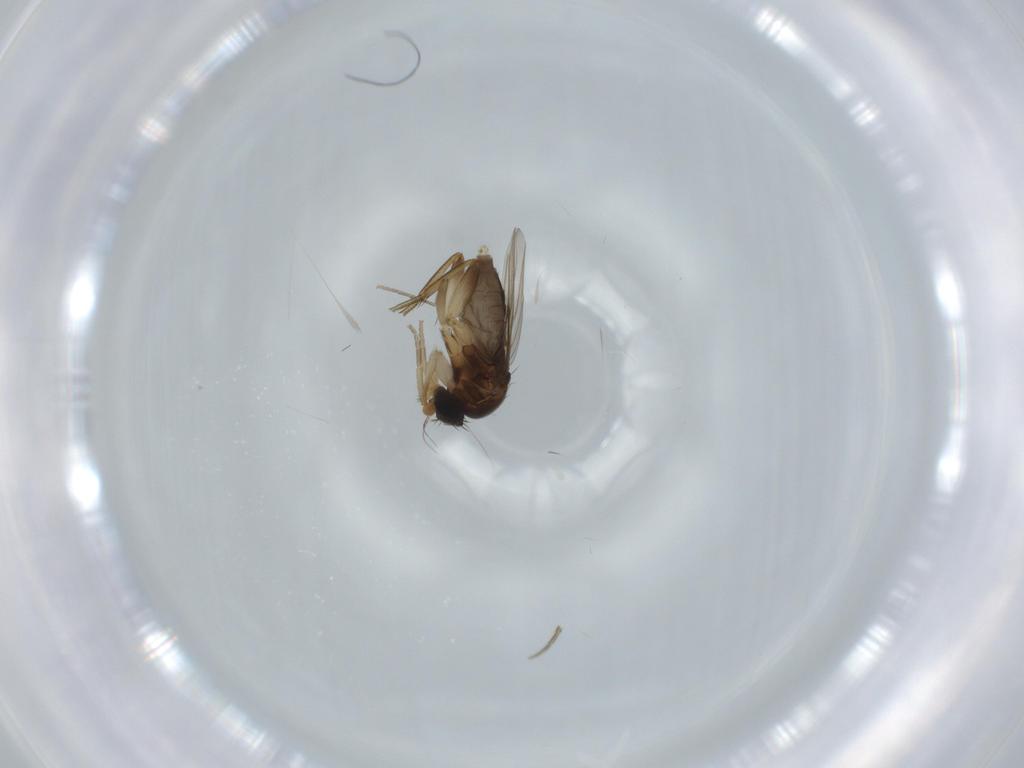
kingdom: Animalia
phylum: Arthropoda
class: Insecta
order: Diptera
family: Phoridae
